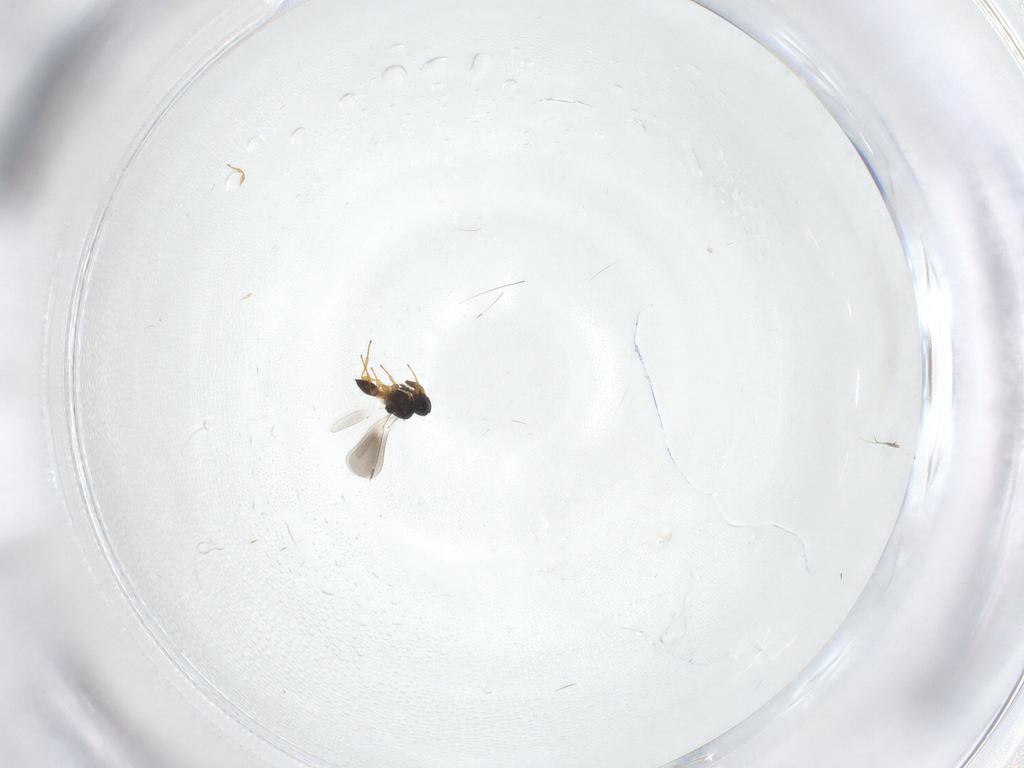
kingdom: Animalia
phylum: Arthropoda
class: Insecta
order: Hymenoptera
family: Platygastridae
